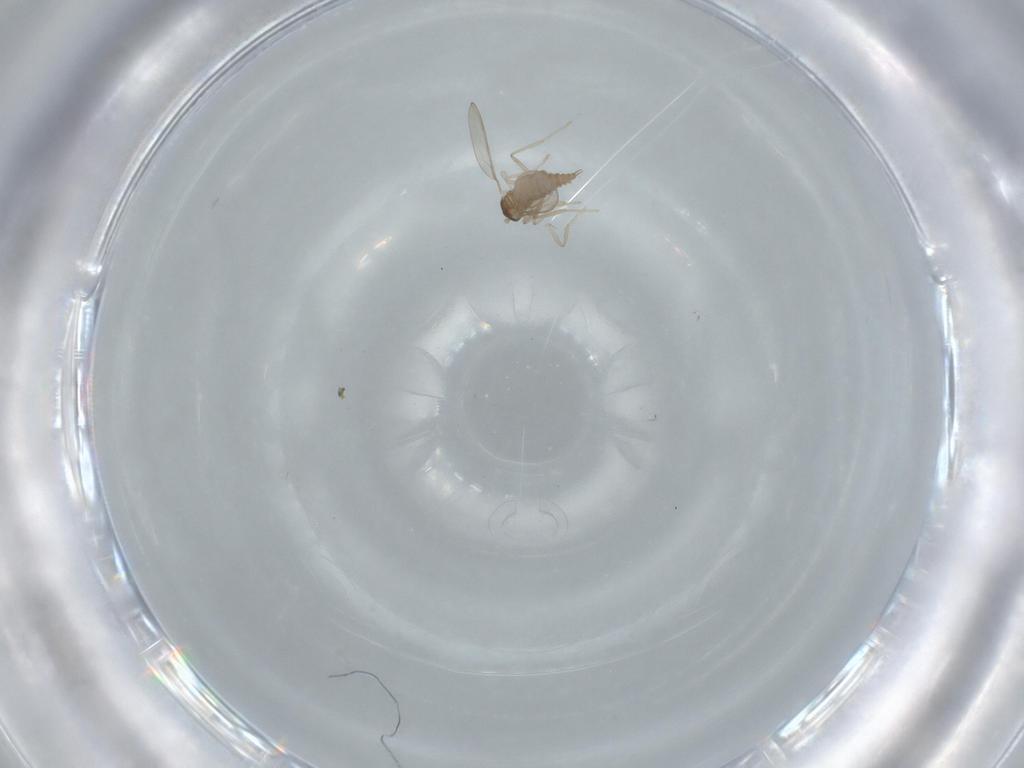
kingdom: Animalia
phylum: Arthropoda
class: Insecta
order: Diptera
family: Cecidomyiidae
